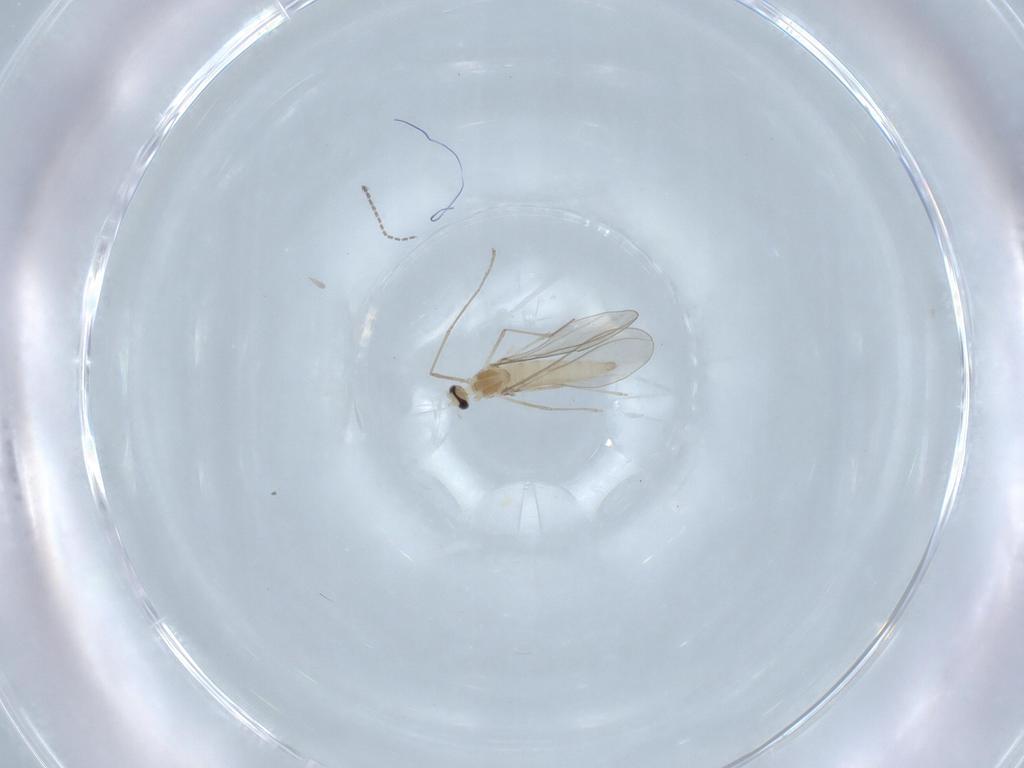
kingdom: Animalia
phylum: Arthropoda
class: Insecta
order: Diptera
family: Cecidomyiidae
